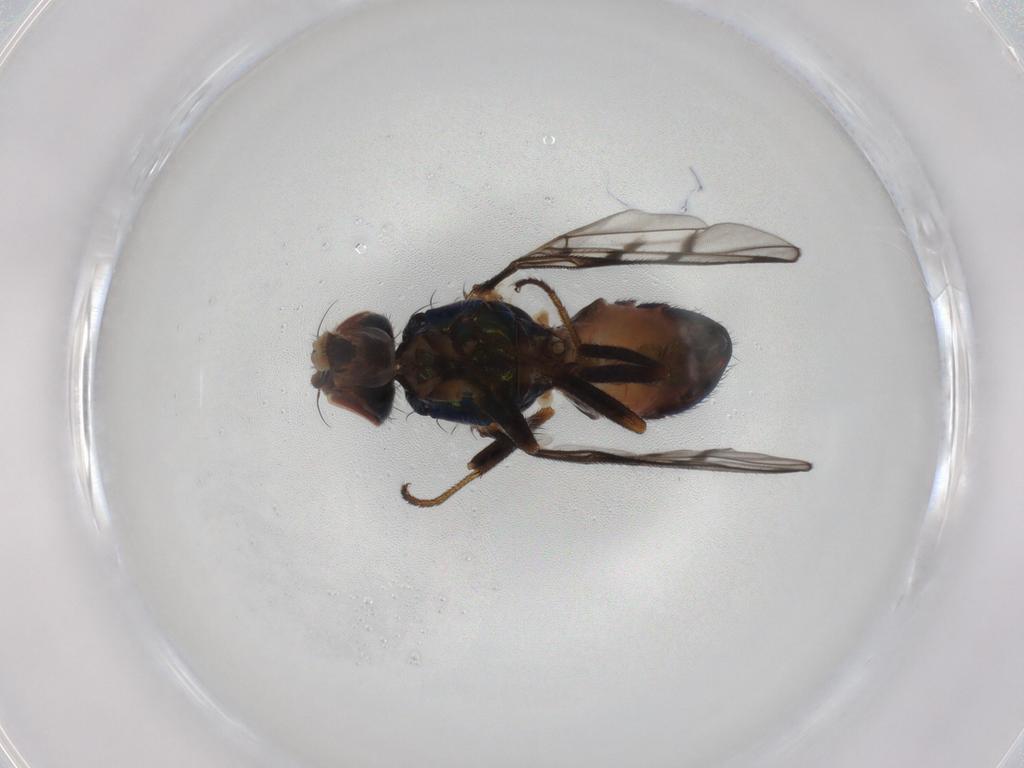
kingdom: Animalia
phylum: Arthropoda
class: Insecta
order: Diptera
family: Platystomatidae
